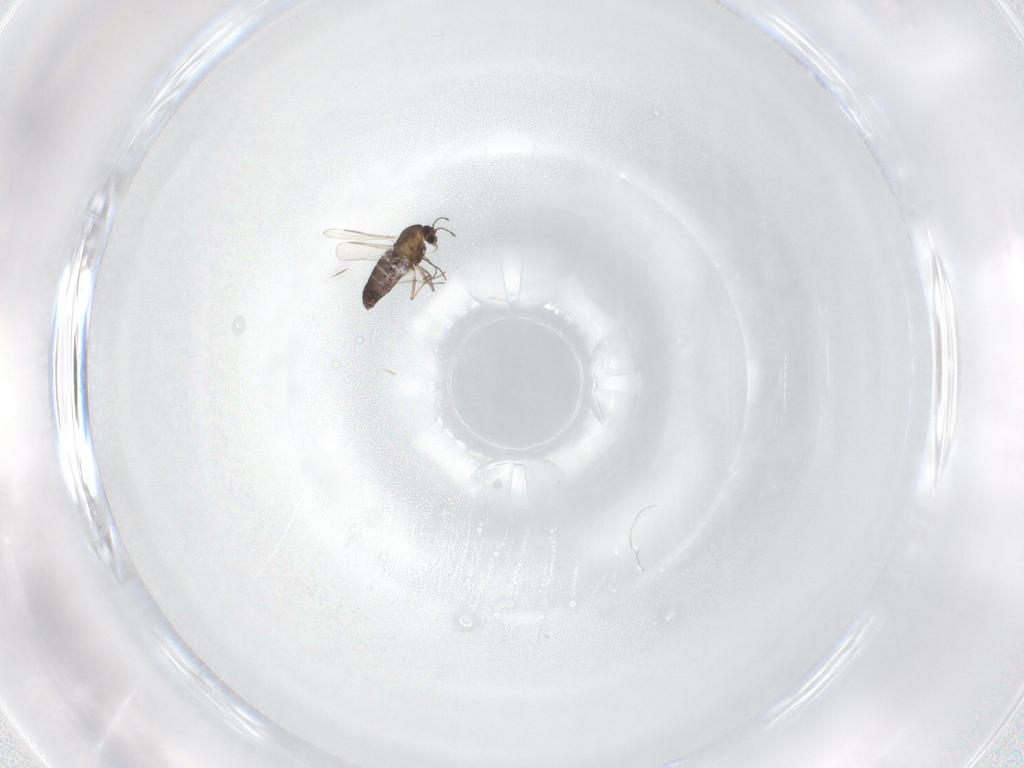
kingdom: Animalia
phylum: Arthropoda
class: Insecta
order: Diptera
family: Chironomidae
